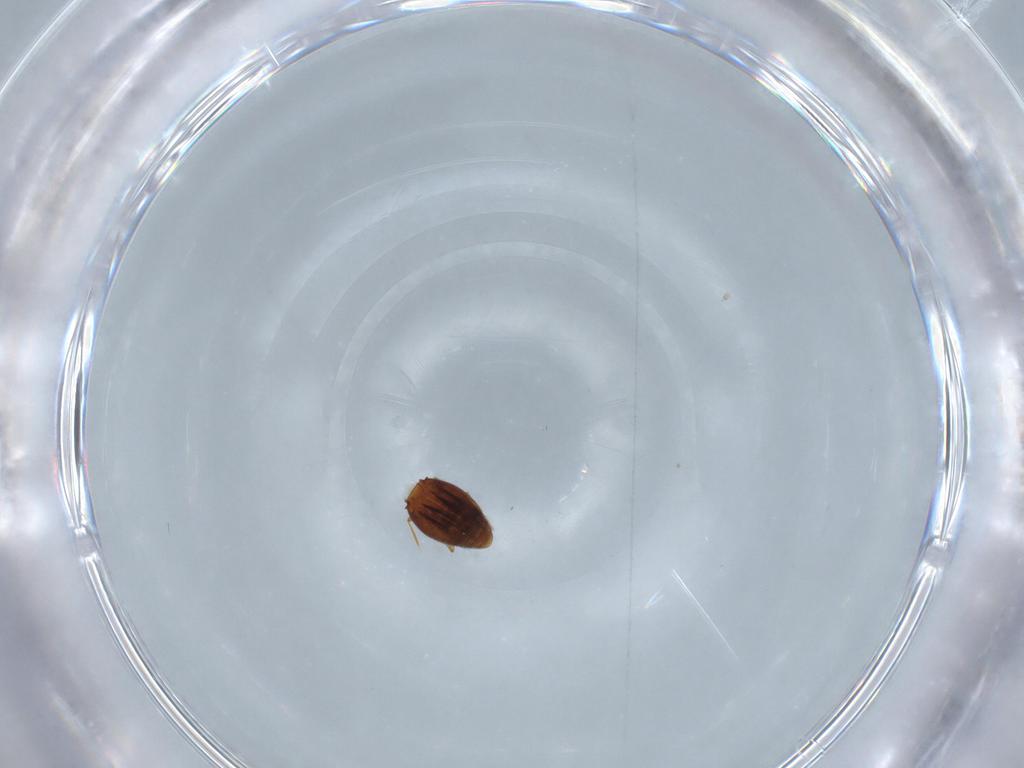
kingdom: Animalia
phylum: Arthropoda
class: Insecta
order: Coleoptera
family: Ptiliidae
